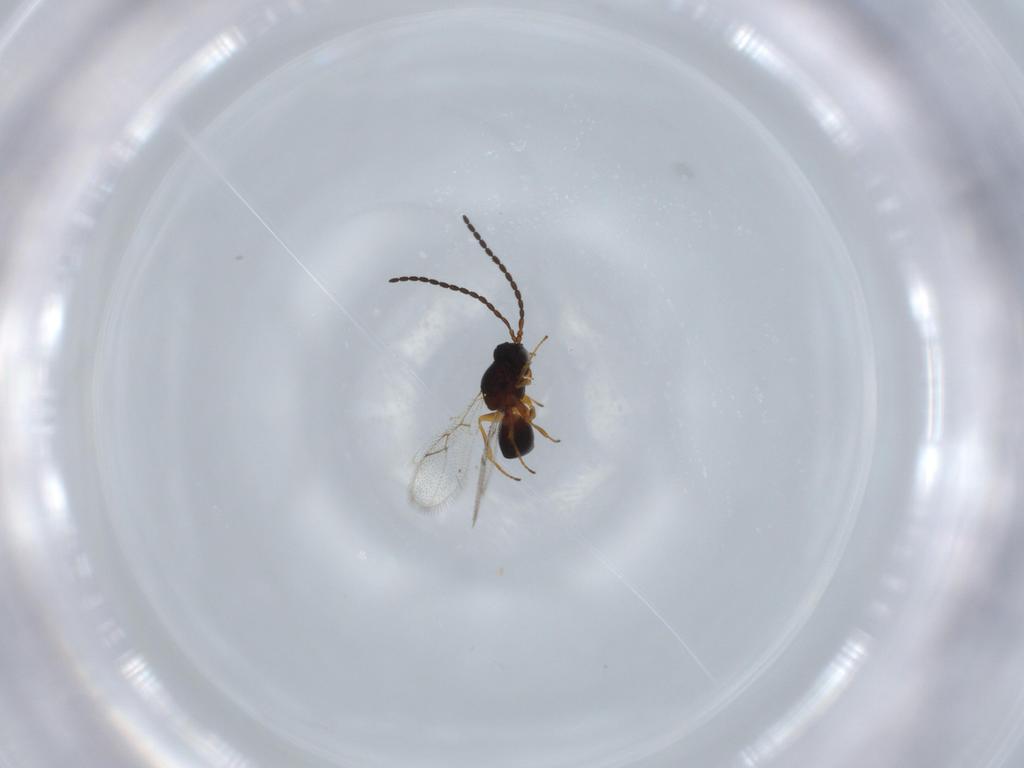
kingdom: Animalia
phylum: Arthropoda
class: Insecta
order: Hymenoptera
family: Figitidae
